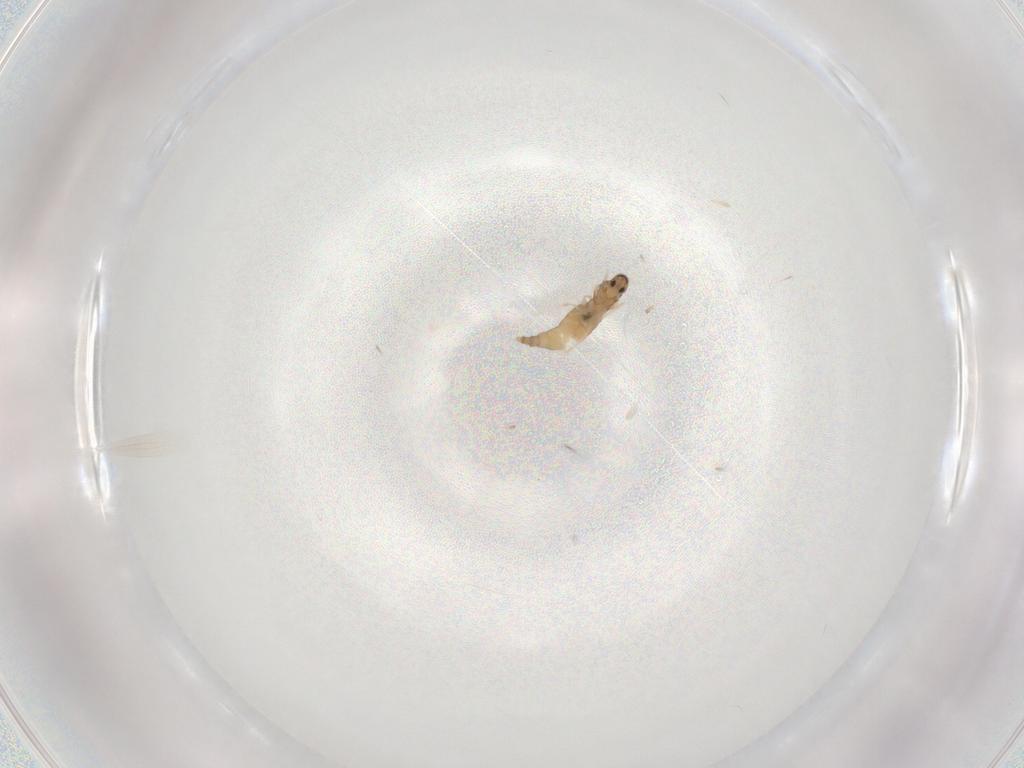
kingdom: Animalia
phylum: Arthropoda
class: Insecta
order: Diptera
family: Cecidomyiidae
